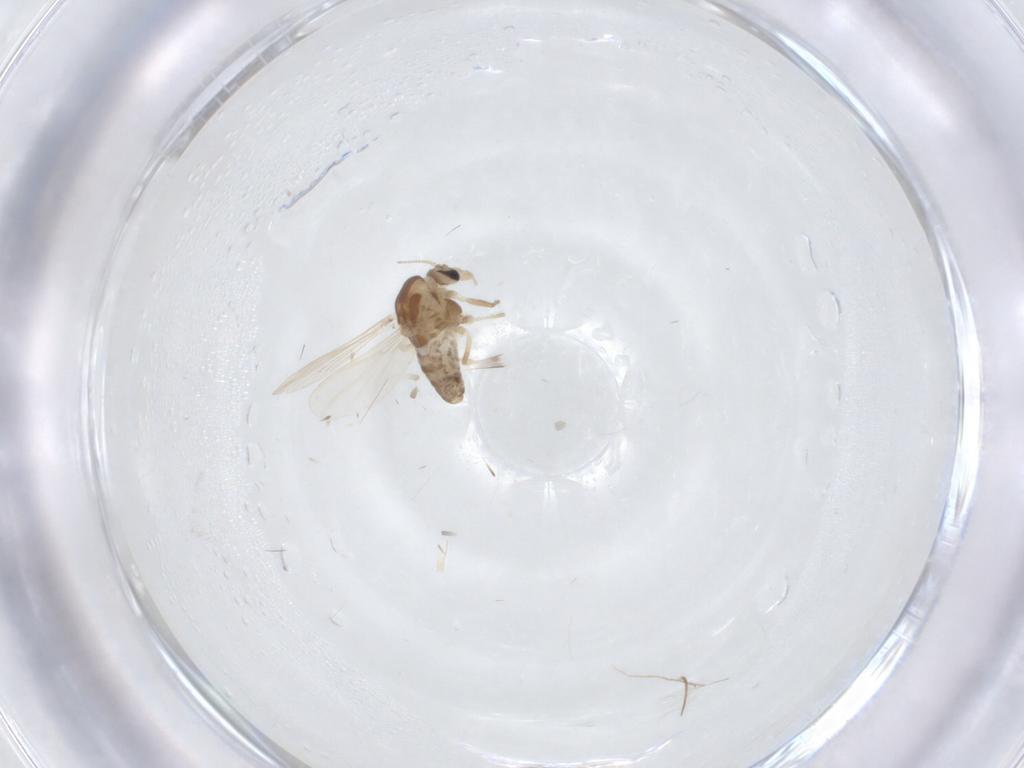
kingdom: Animalia
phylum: Arthropoda
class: Insecta
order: Diptera
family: Chironomidae
